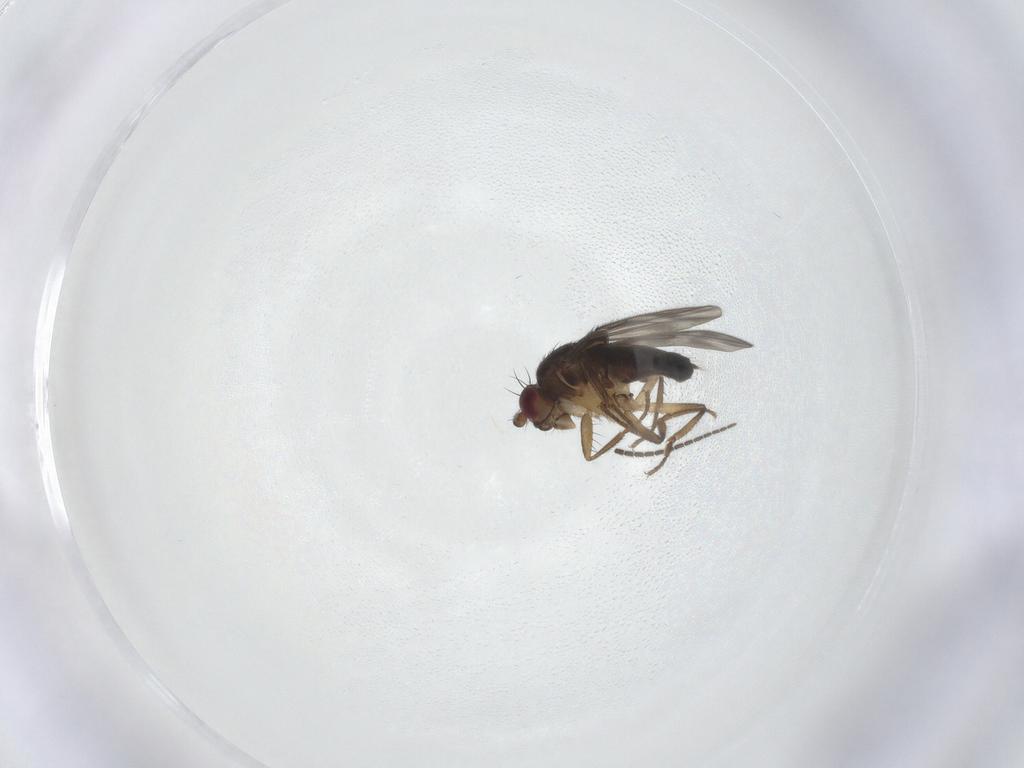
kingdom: Animalia
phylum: Arthropoda
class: Insecta
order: Diptera
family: Sphaeroceridae
